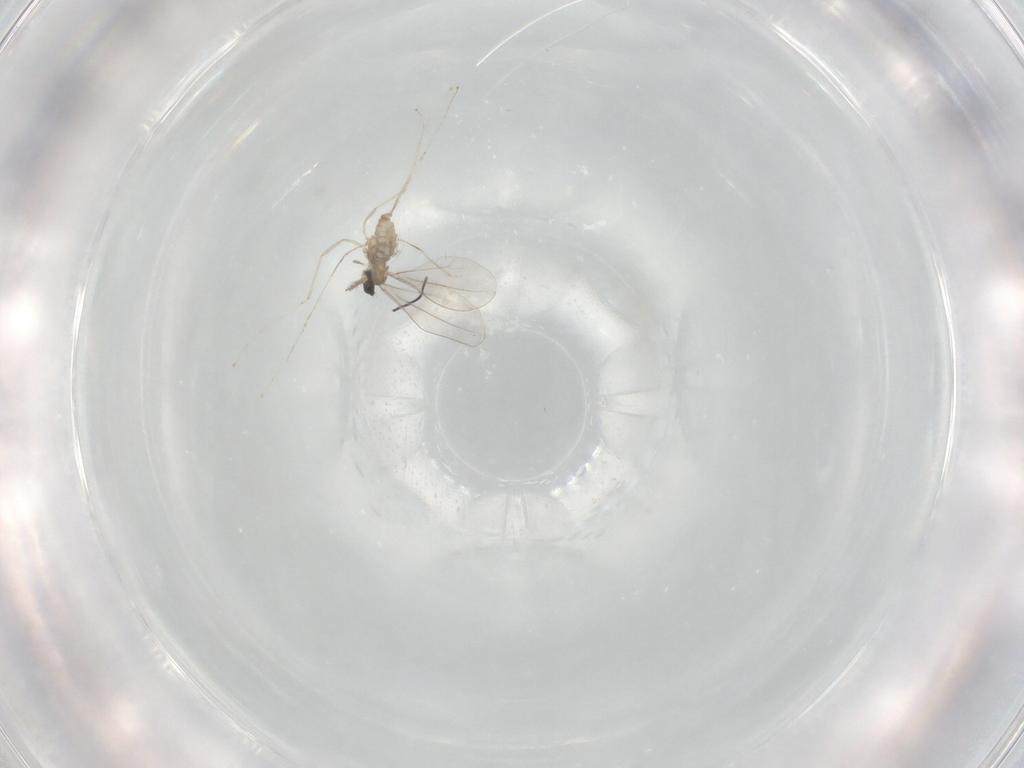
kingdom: Animalia
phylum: Arthropoda
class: Insecta
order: Diptera
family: Cecidomyiidae
